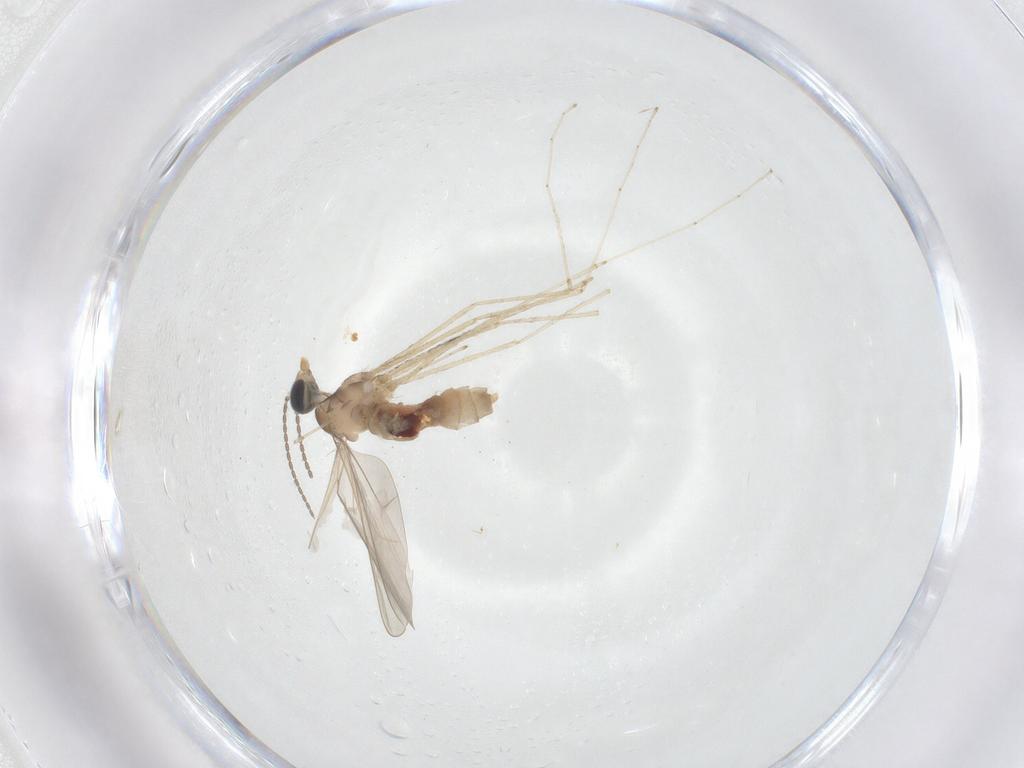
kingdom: Animalia
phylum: Arthropoda
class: Insecta
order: Diptera
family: Cecidomyiidae
